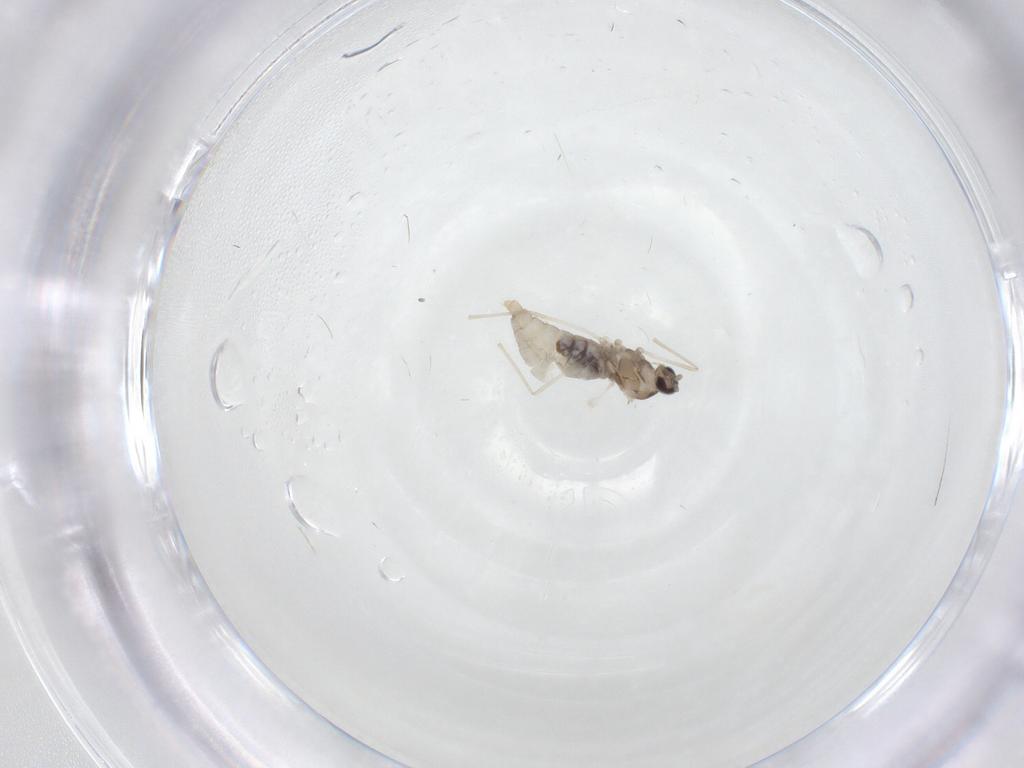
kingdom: Animalia
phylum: Arthropoda
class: Insecta
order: Diptera
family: Cecidomyiidae
